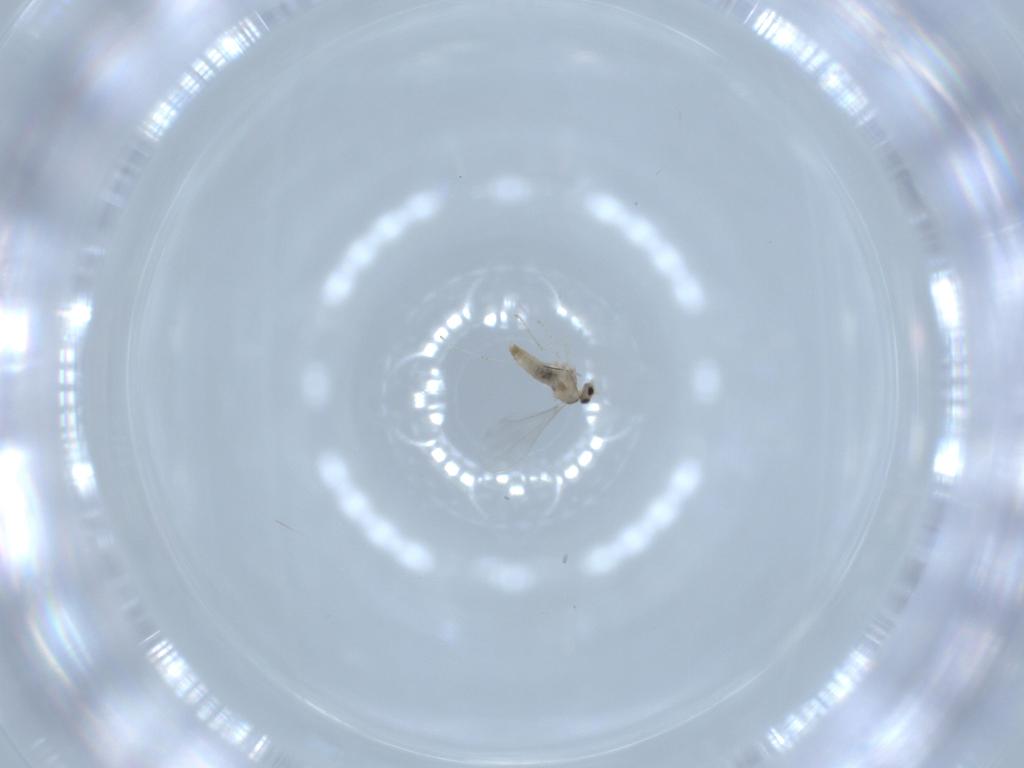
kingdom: Animalia
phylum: Arthropoda
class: Insecta
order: Diptera
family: Cecidomyiidae
